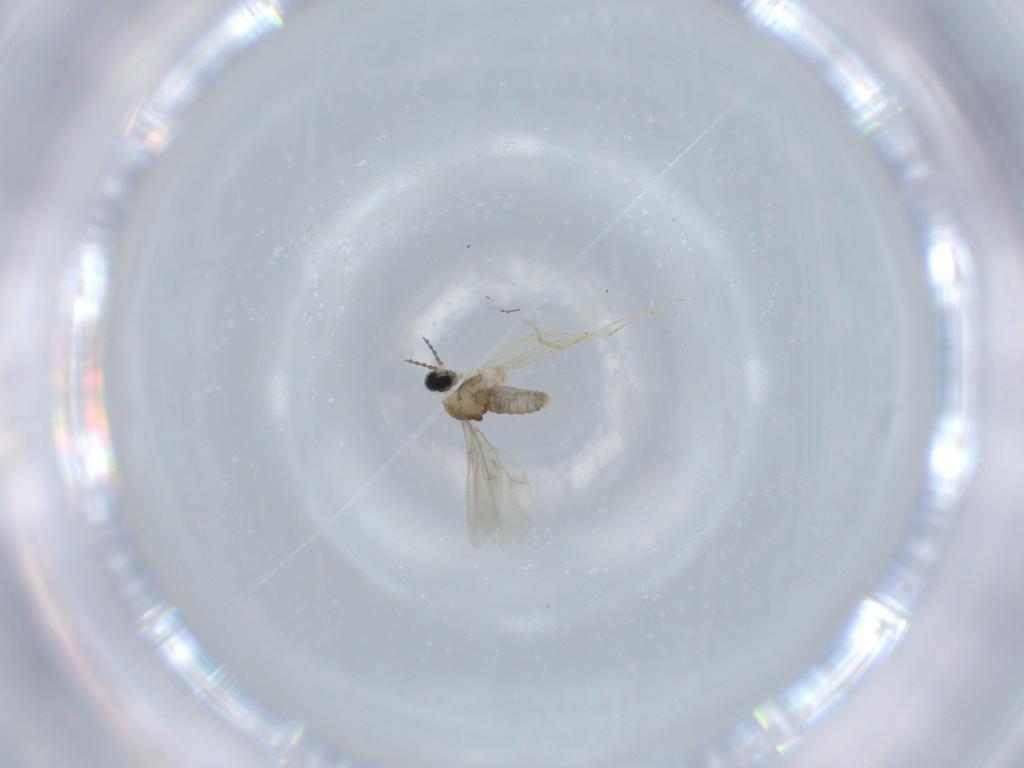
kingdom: Animalia
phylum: Arthropoda
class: Insecta
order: Diptera
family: Cecidomyiidae
